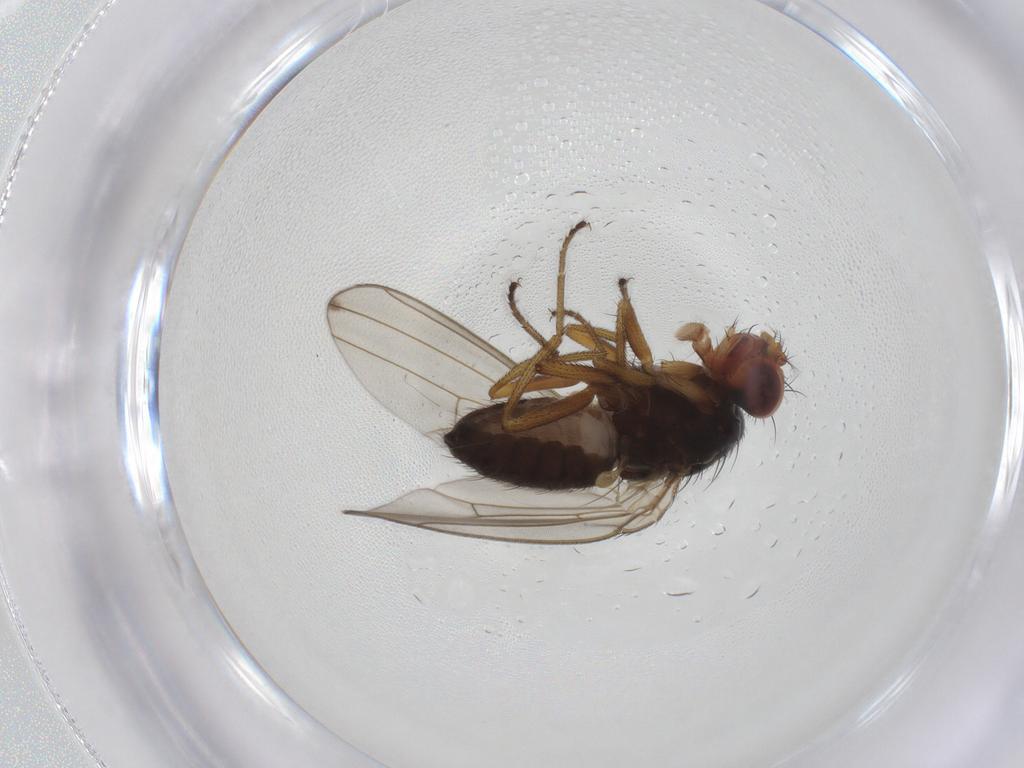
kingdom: Animalia
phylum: Arthropoda
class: Insecta
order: Diptera
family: Drosophilidae
